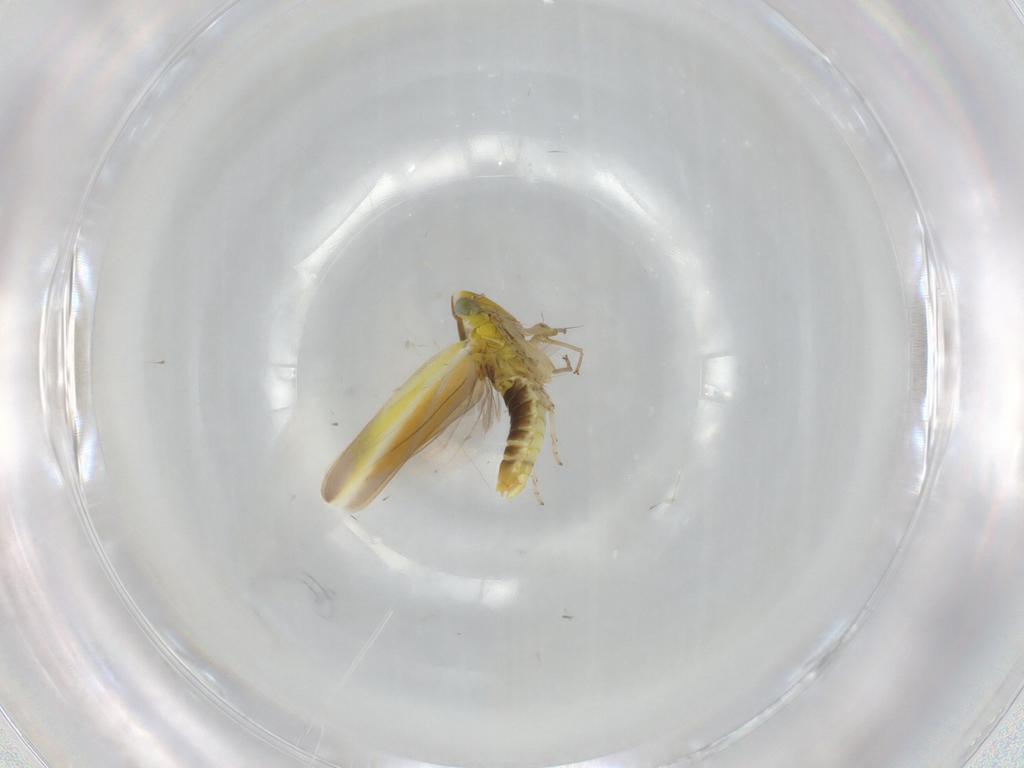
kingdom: Animalia
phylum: Arthropoda
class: Insecta
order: Hemiptera
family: Cicadellidae
